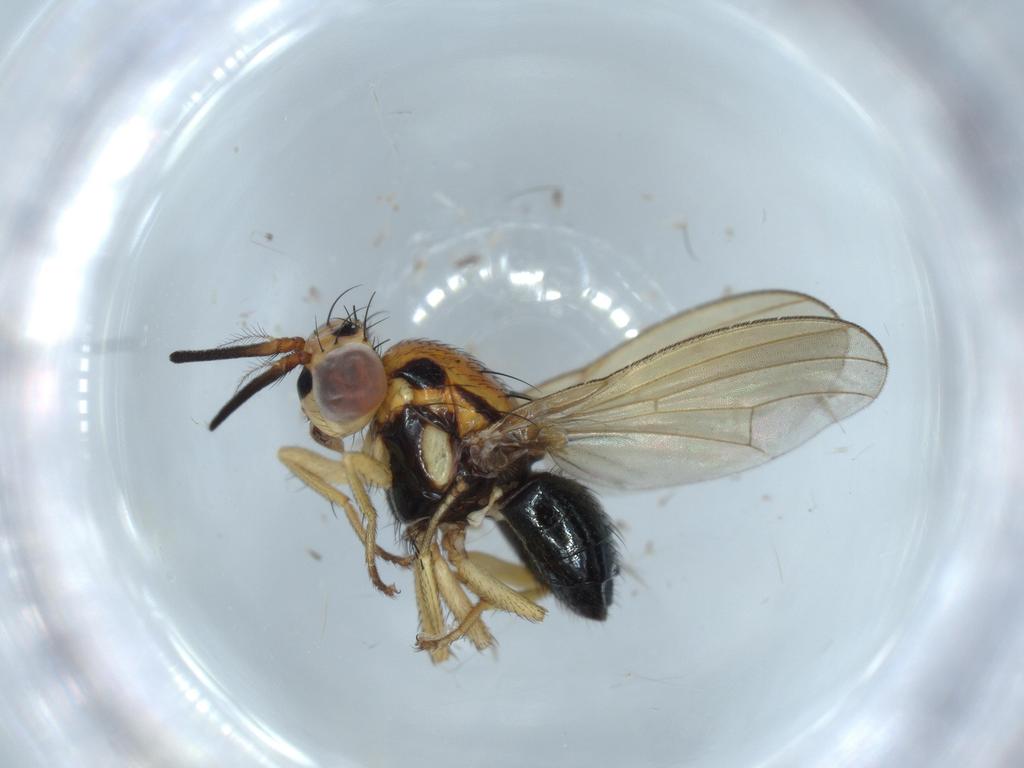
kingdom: Animalia
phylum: Arthropoda
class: Insecta
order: Diptera
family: Lauxaniidae
